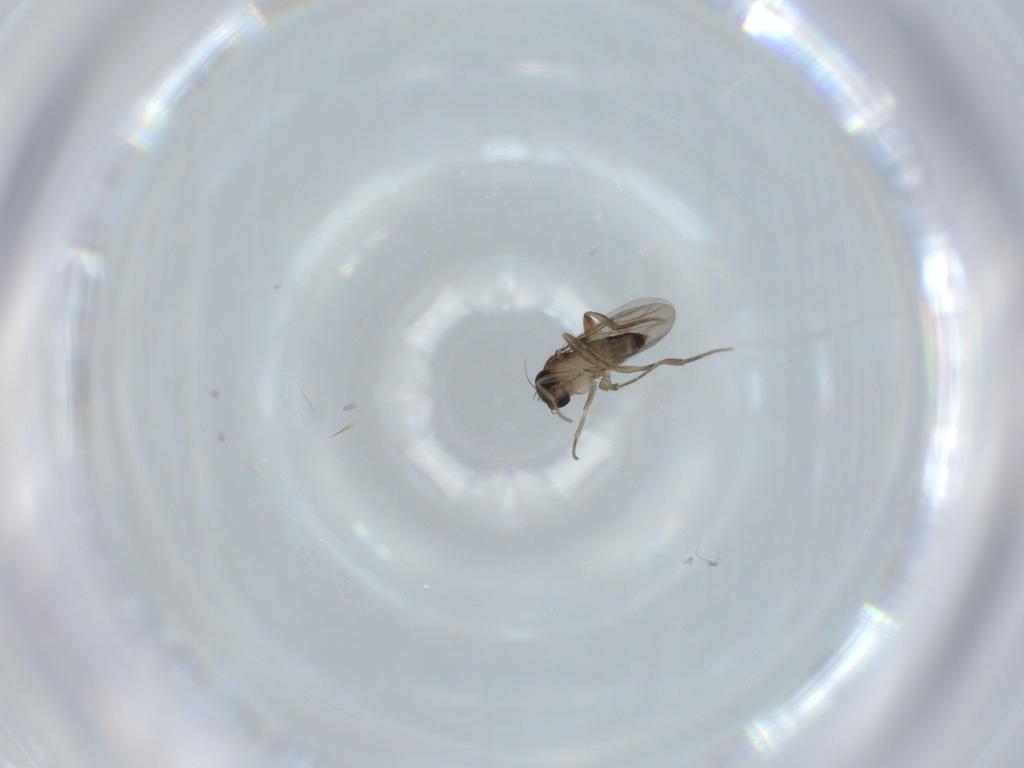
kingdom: Animalia
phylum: Arthropoda
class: Insecta
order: Diptera
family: Phoridae
